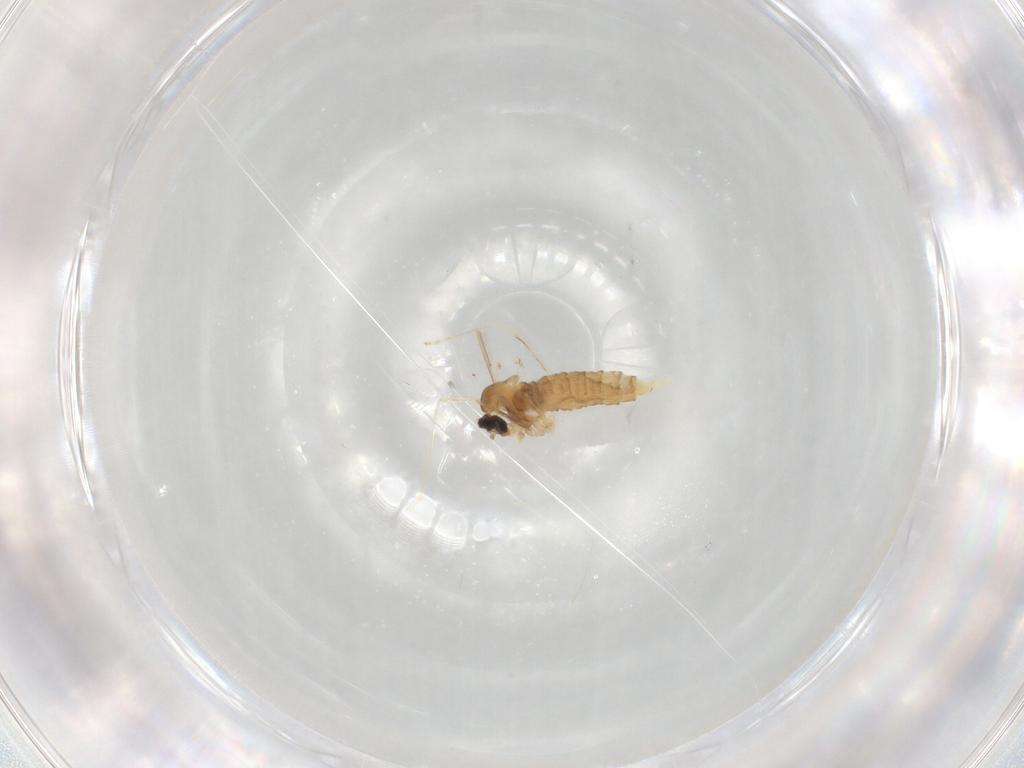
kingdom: Animalia
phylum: Arthropoda
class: Insecta
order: Diptera
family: Cecidomyiidae
